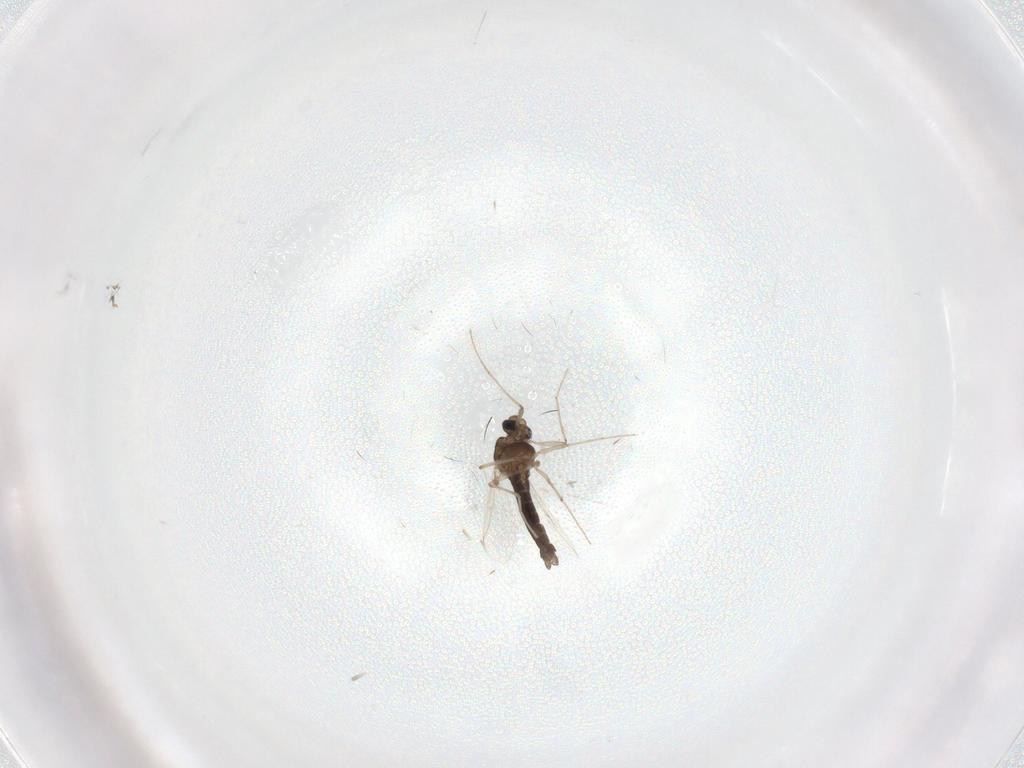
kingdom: Animalia
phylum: Arthropoda
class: Insecta
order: Diptera
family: Chironomidae
